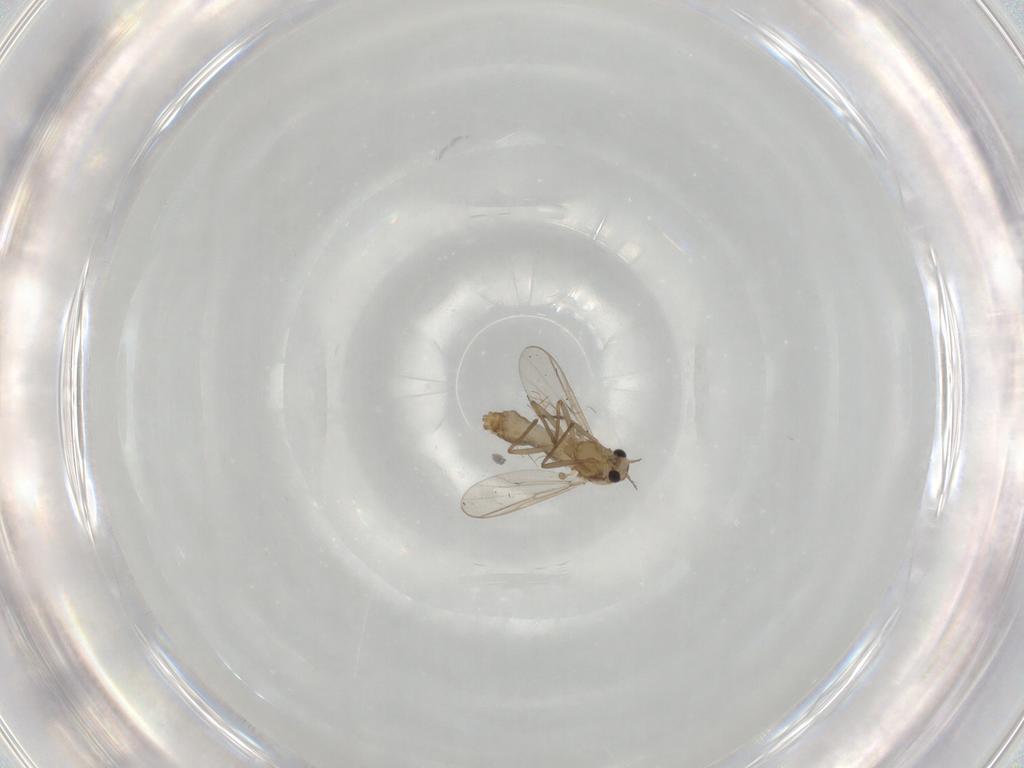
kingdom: Animalia
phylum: Arthropoda
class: Insecta
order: Diptera
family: Chironomidae
